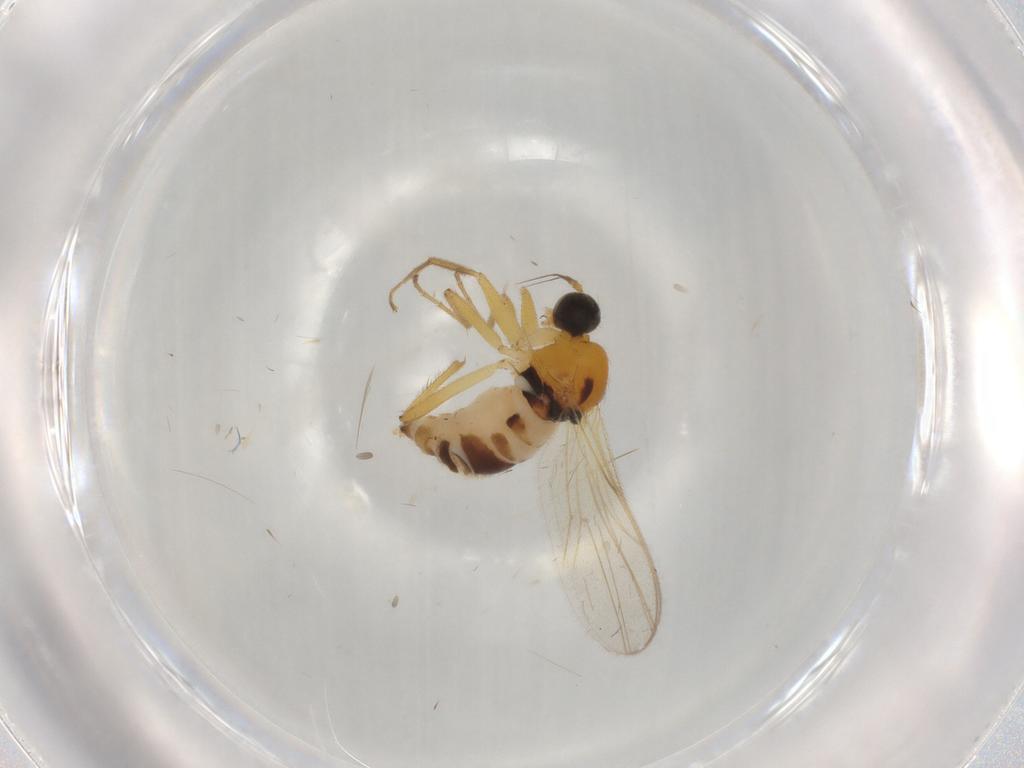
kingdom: Animalia
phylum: Arthropoda
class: Insecta
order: Diptera
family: Hybotidae
